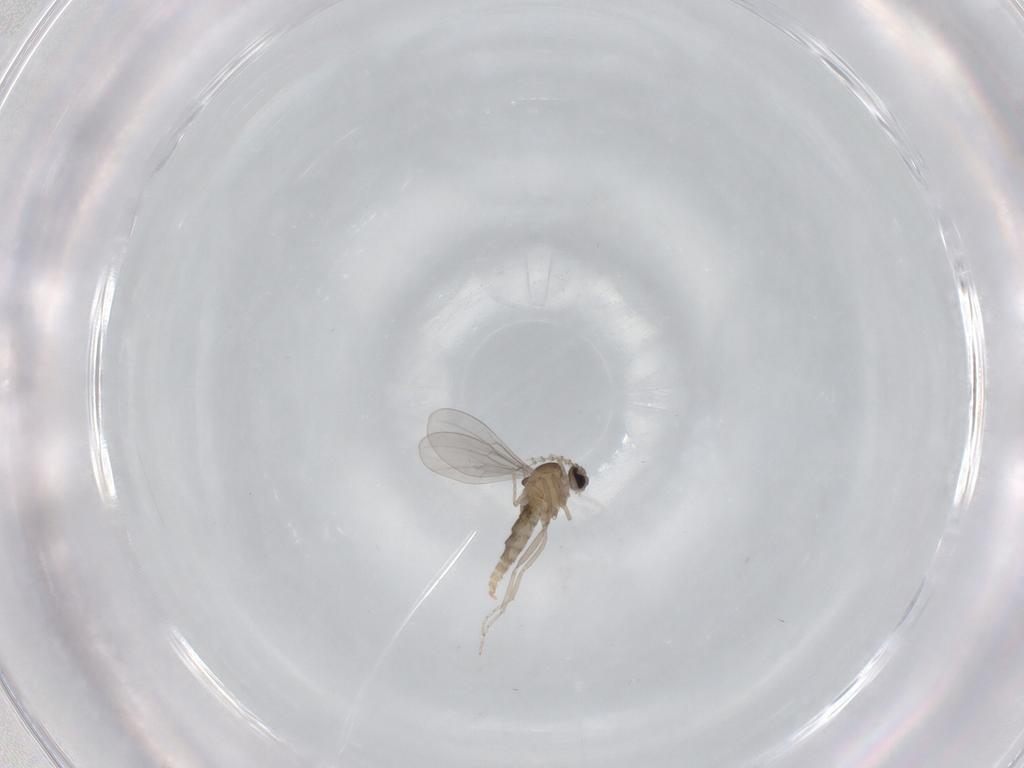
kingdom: Animalia
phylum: Arthropoda
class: Insecta
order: Diptera
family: Cecidomyiidae
